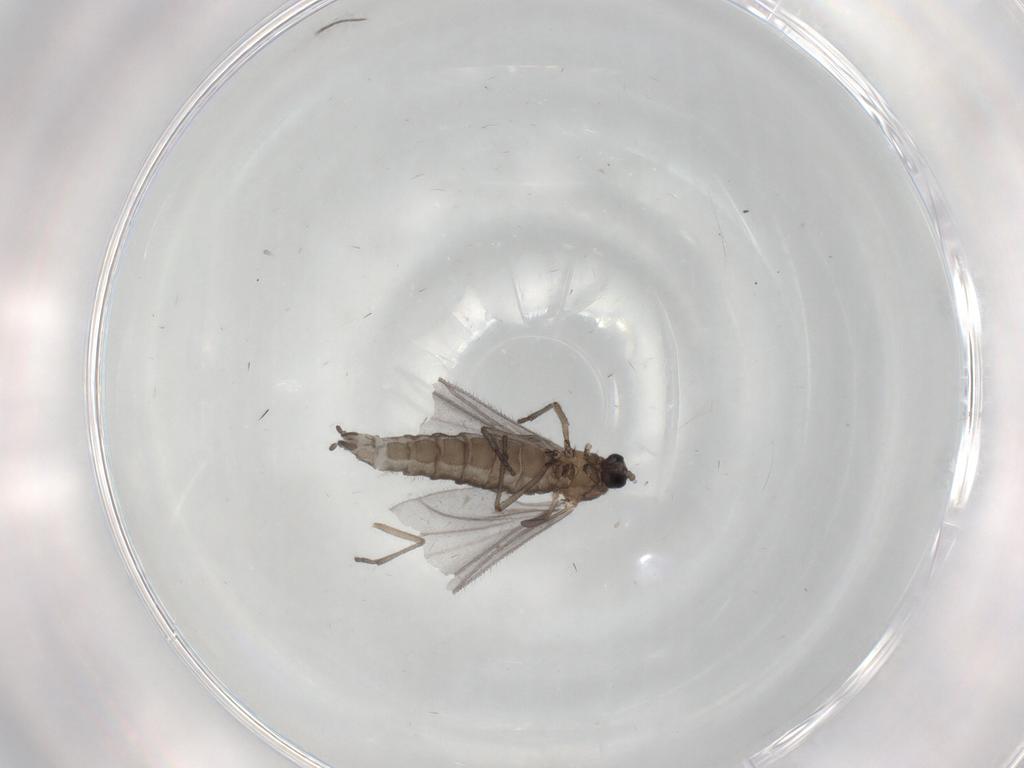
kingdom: Animalia
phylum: Arthropoda
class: Insecta
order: Diptera
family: Sciaridae
